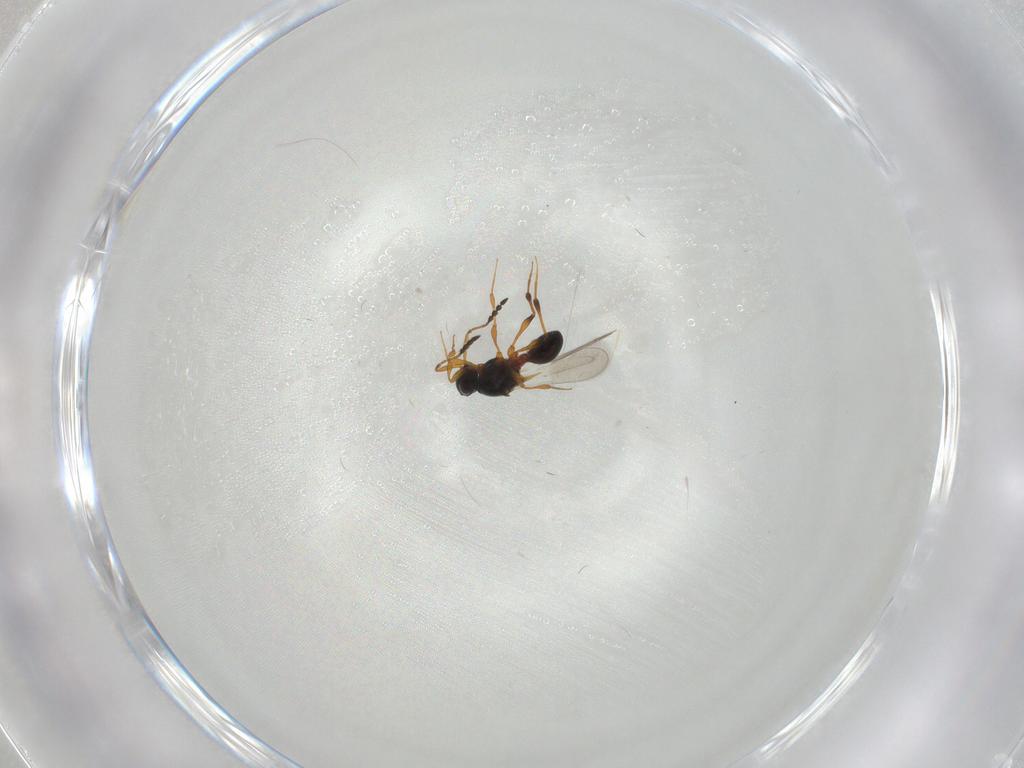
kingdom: Animalia
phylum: Arthropoda
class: Insecta
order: Hymenoptera
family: Platygastridae
